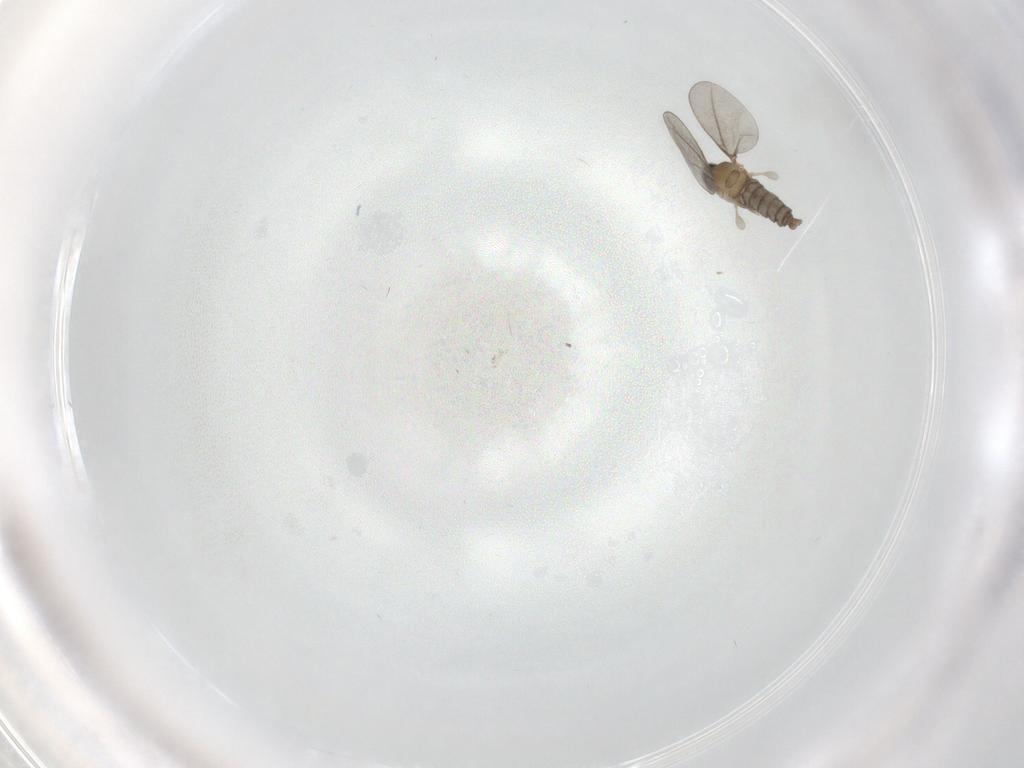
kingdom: Animalia
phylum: Arthropoda
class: Insecta
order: Diptera
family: Sciaridae
